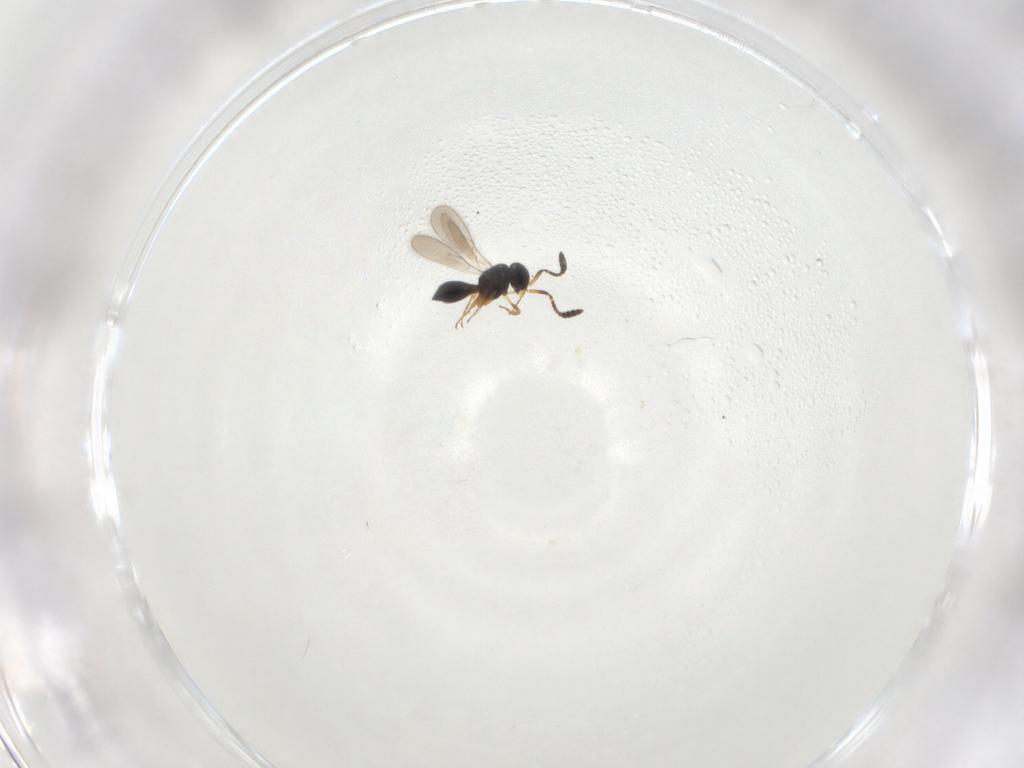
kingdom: Animalia
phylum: Arthropoda
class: Insecta
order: Hymenoptera
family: Scelionidae
